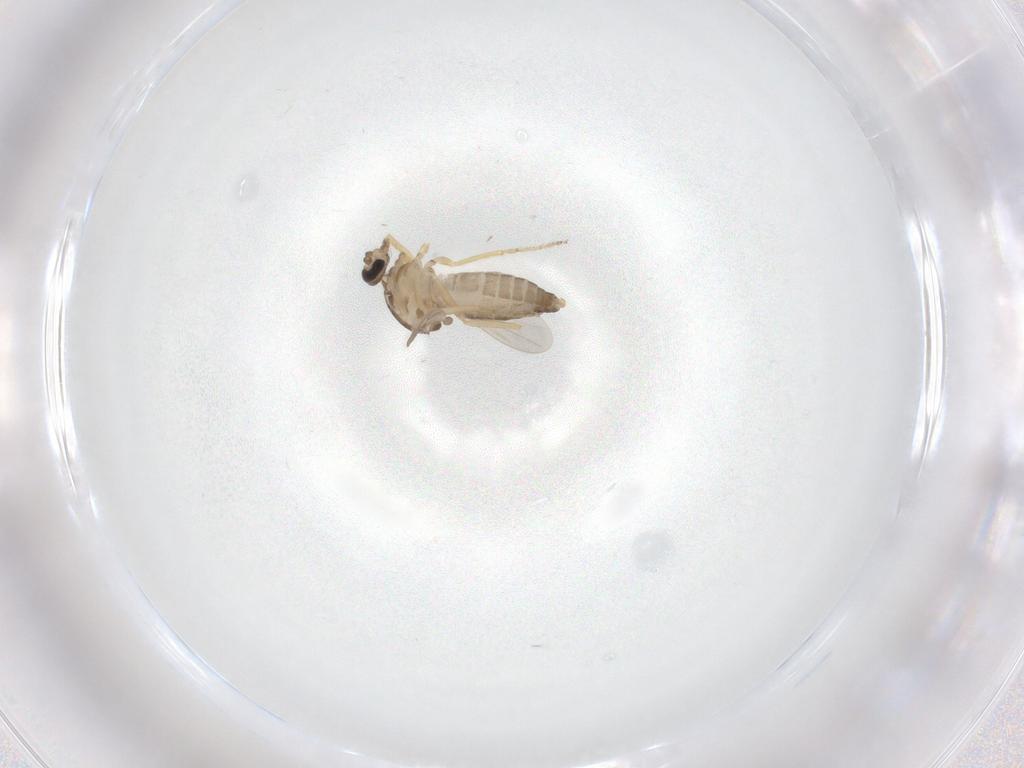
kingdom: Animalia
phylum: Arthropoda
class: Insecta
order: Diptera
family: Ceratopogonidae
